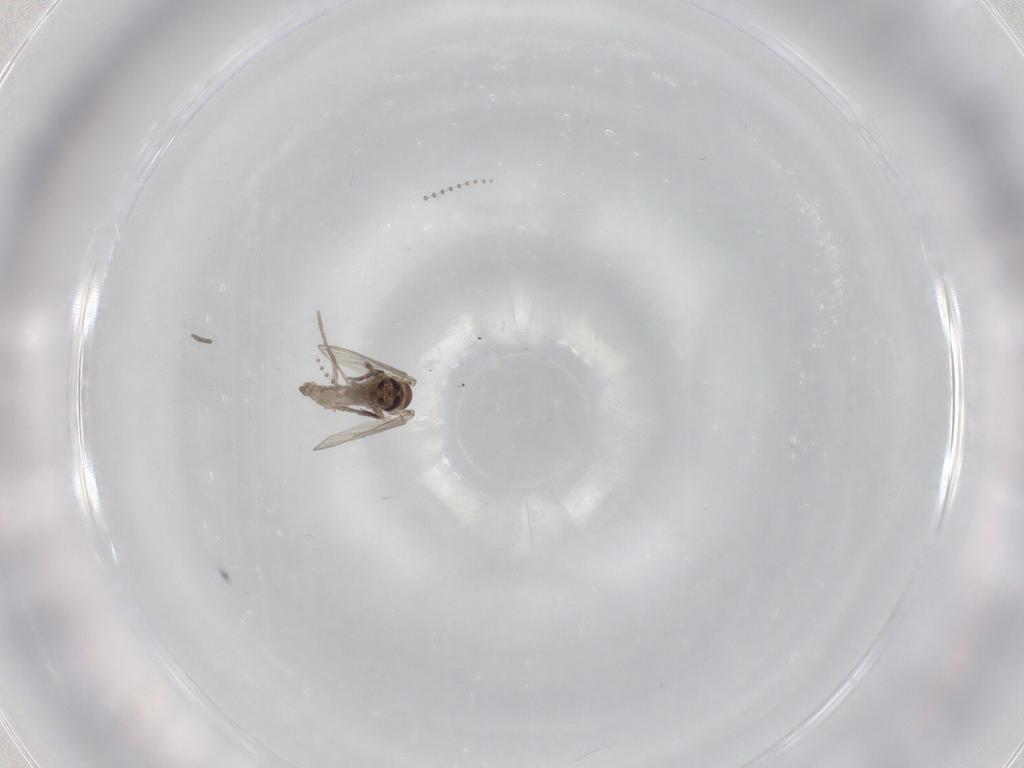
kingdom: Animalia
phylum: Arthropoda
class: Insecta
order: Diptera
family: Psychodidae
